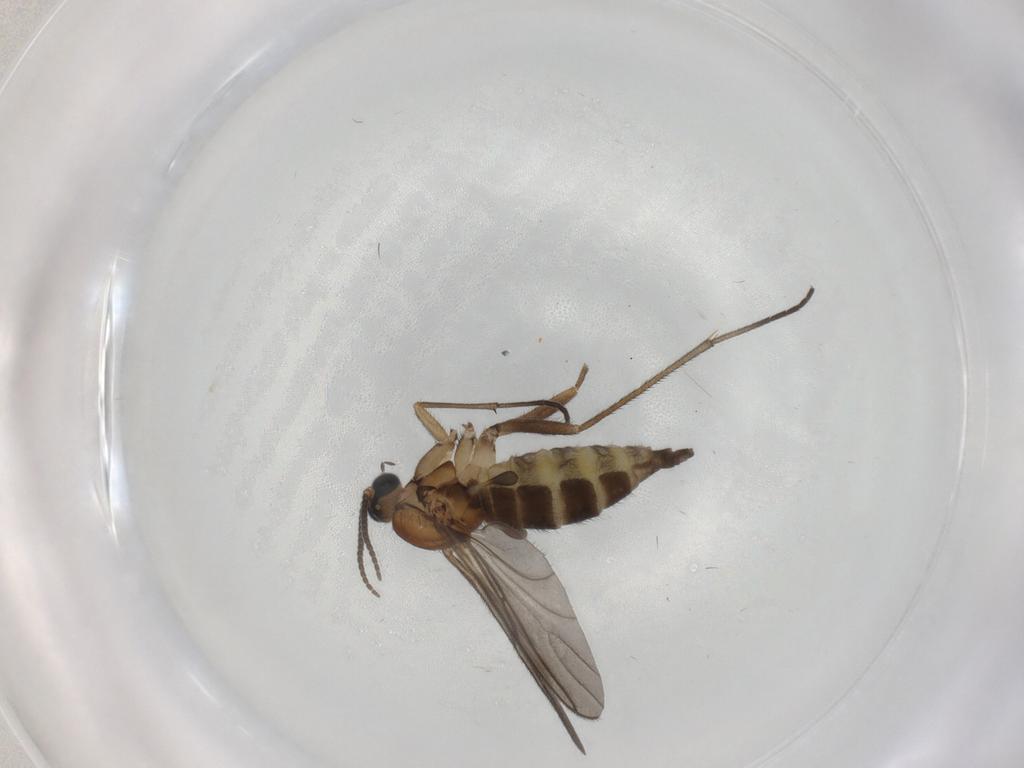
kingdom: Animalia
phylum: Arthropoda
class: Insecta
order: Diptera
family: Sciaridae
